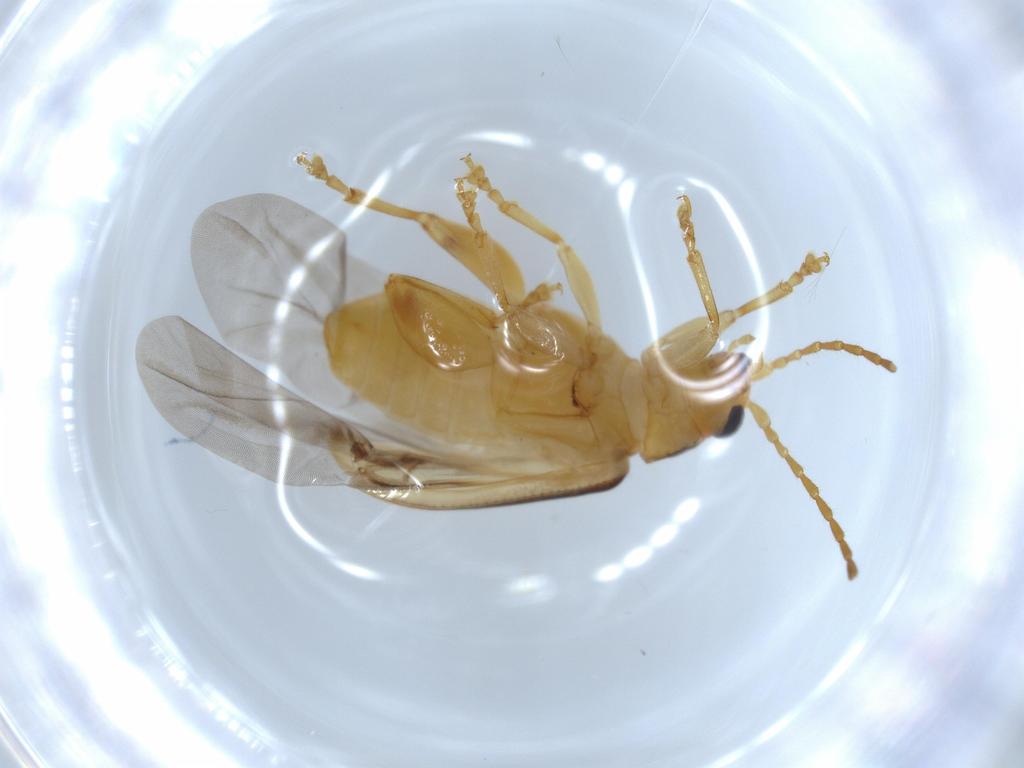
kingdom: Animalia
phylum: Arthropoda
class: Insecta
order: Coleoptera
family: Chrysomelidae
